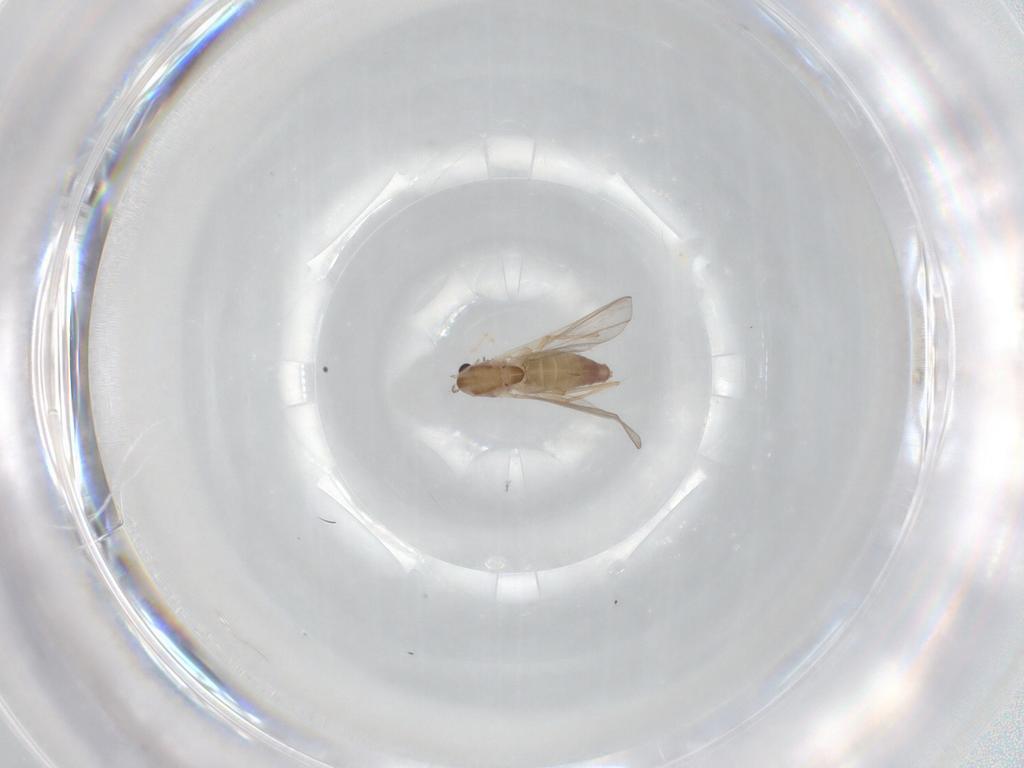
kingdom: Animalia
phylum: Arthropoda
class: Insecta
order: Diptera
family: Chironomidae
